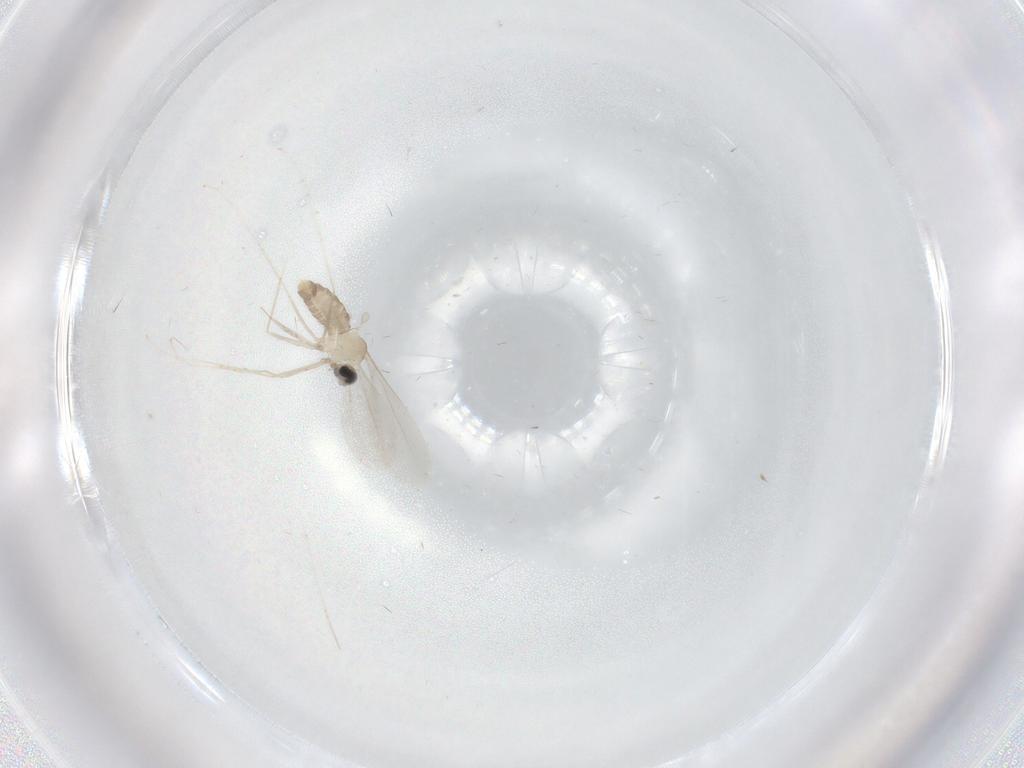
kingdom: Animalia
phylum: Arthropoda
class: Insecta
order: Diptera
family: Cecidomyiidae
